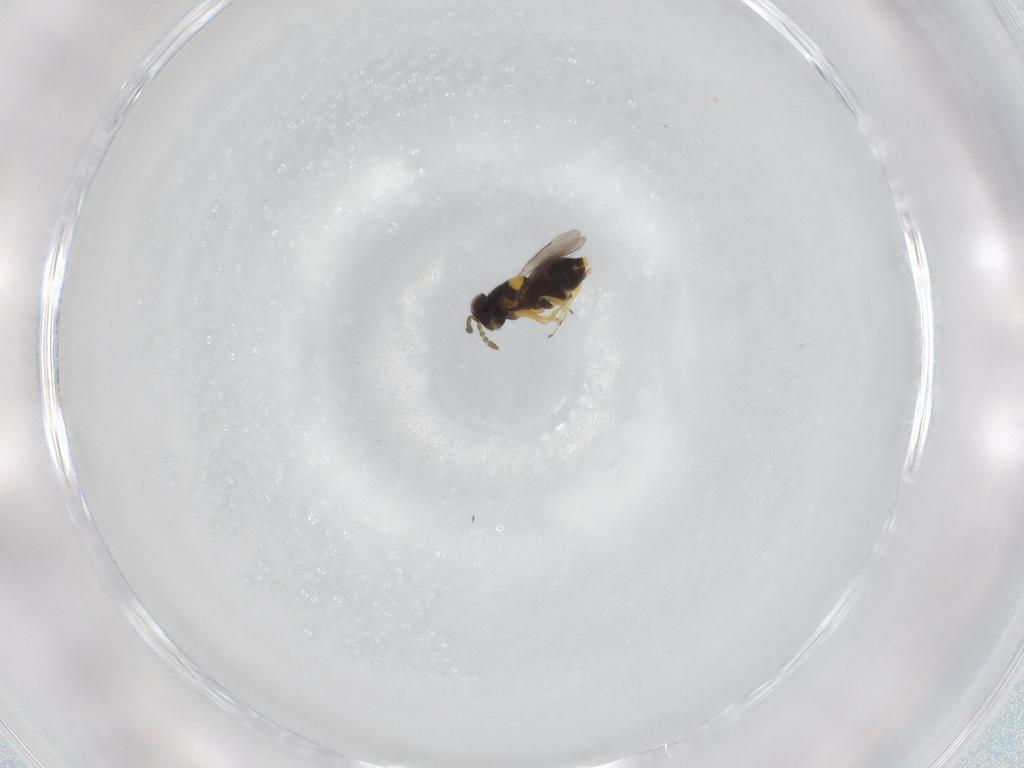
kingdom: Animalia
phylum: Arthropoda
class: Insecta
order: Hymenoptera
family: Aphelinidae
